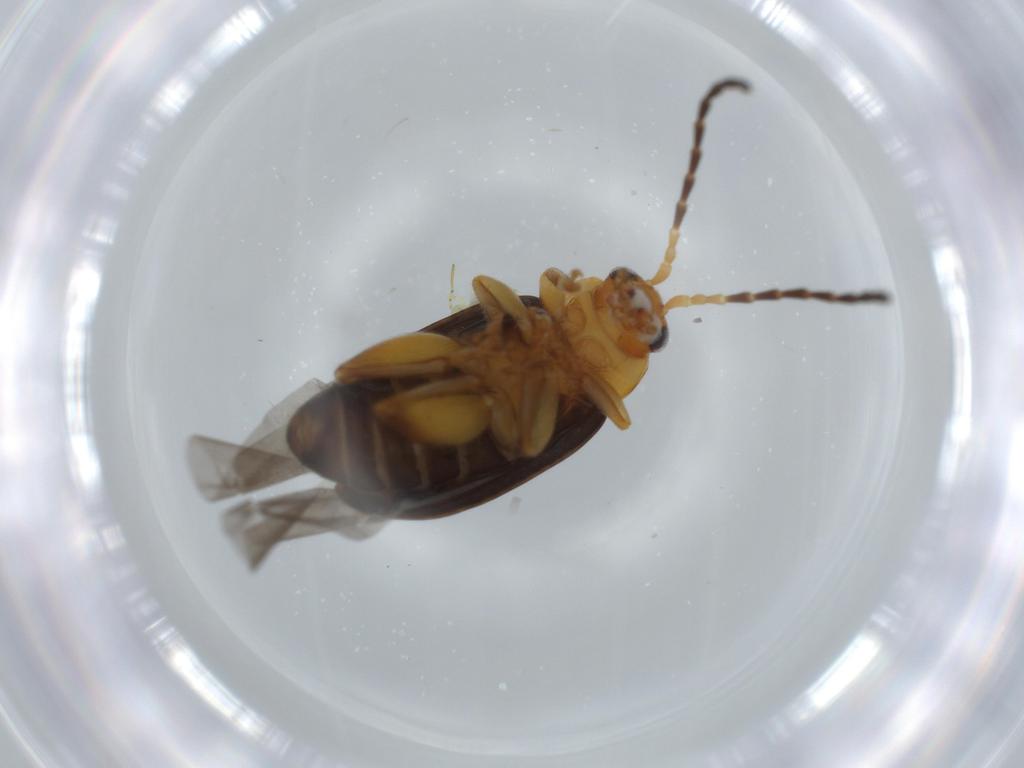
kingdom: Animalia
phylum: Arthropoda
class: Insecta
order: Coleoptera
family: Chrysomelidae
